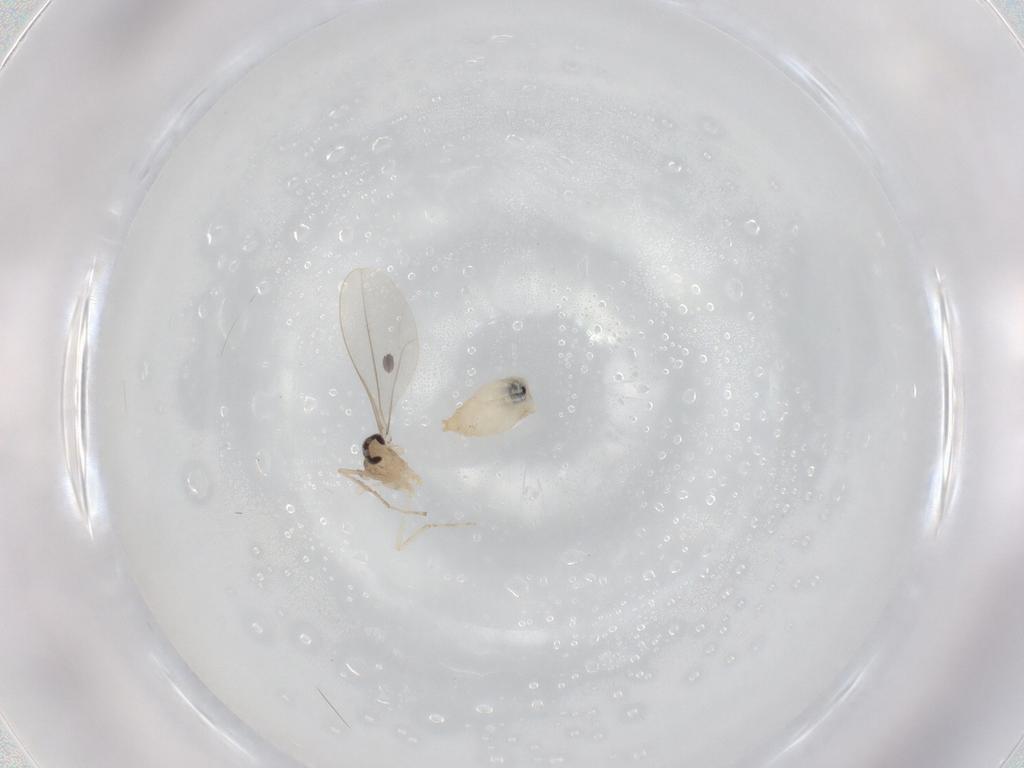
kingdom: Animalia
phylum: Arthropoda
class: Insecta
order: Diptera
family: Cecidomyiidae
